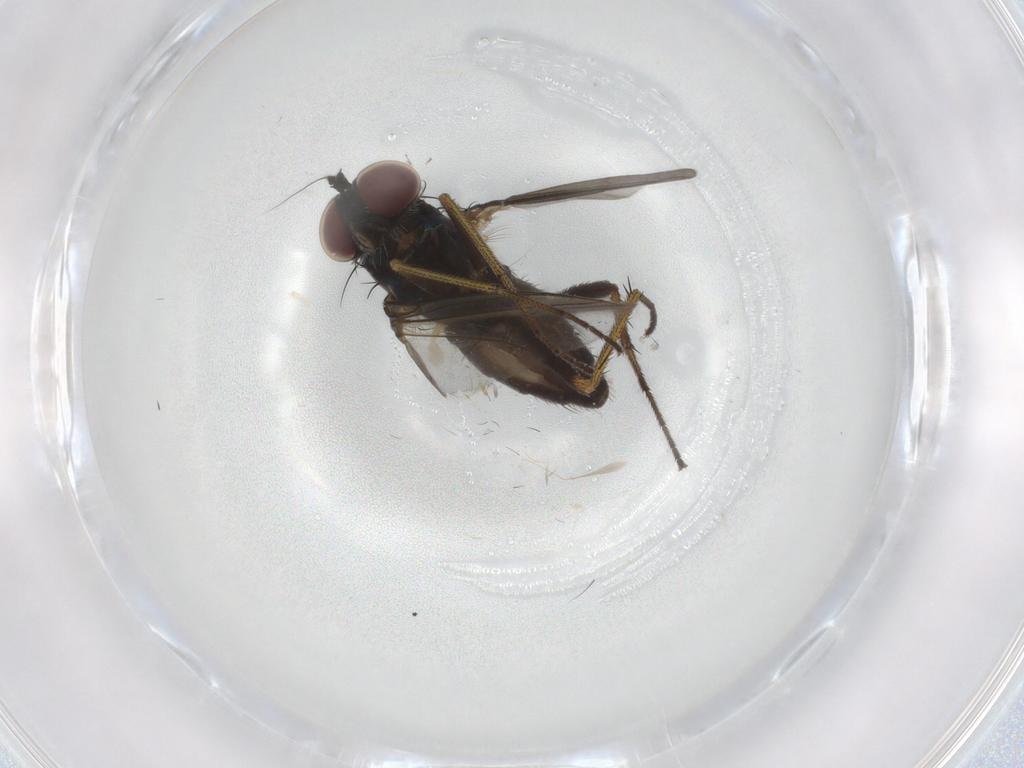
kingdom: Animalia
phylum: Arthropoda
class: Insecta
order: Diptera
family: Dolichopodidae
